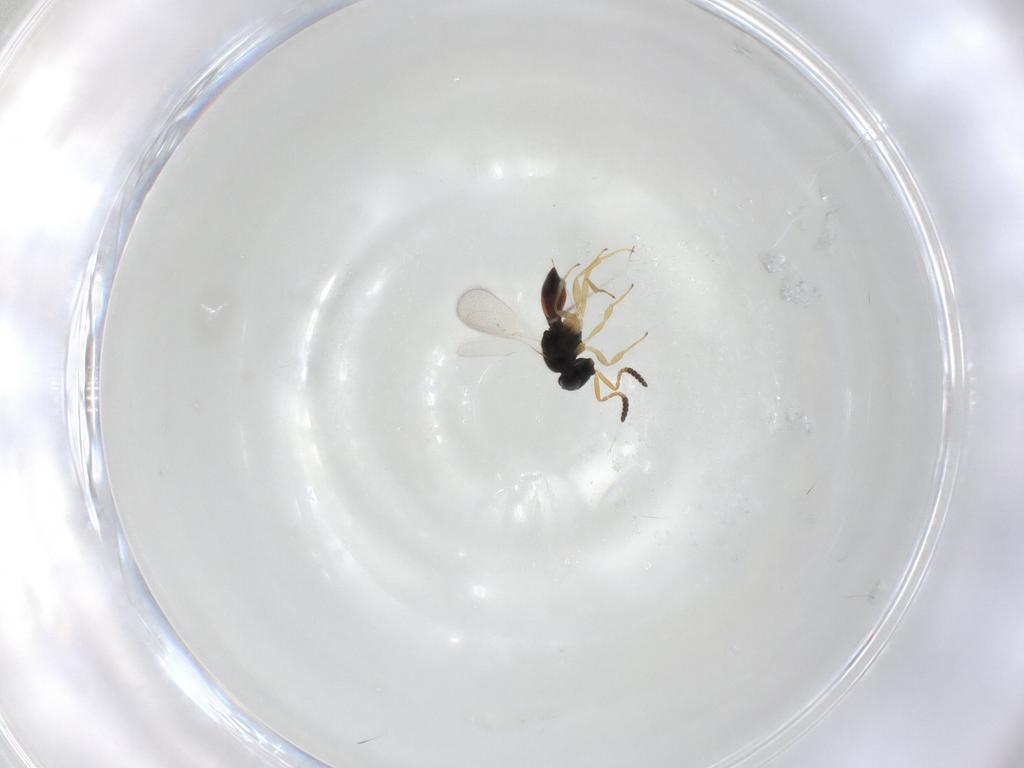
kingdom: Animalia
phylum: Arthropoda
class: Insecta
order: Hymenoptera
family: Scelionidae
